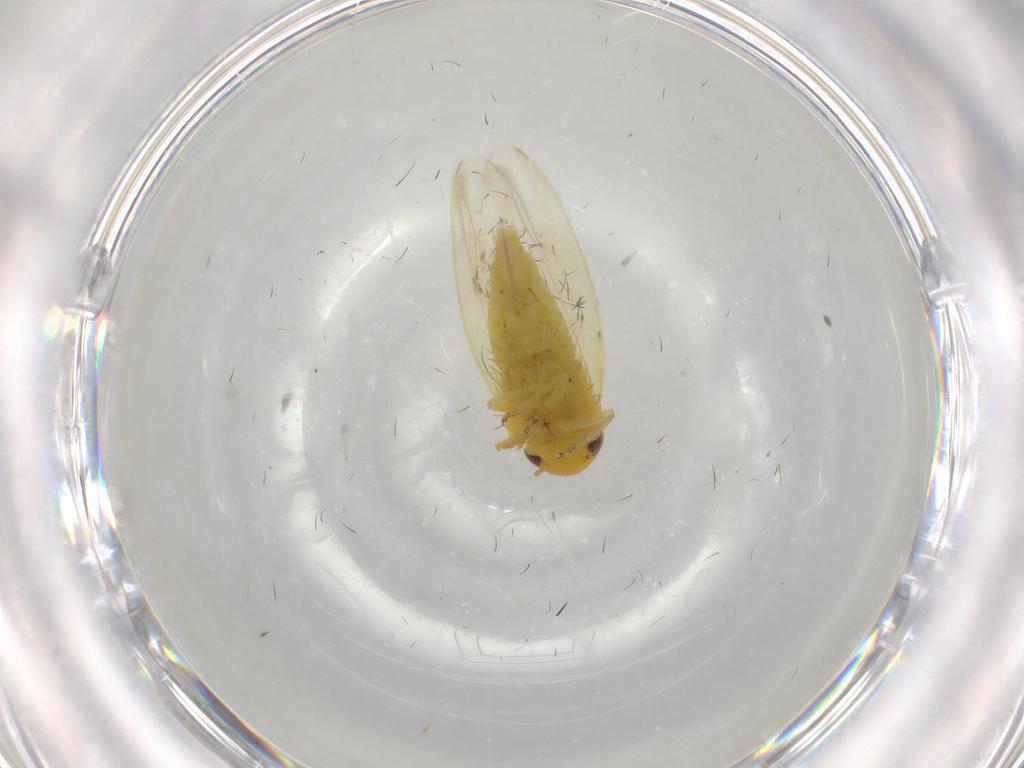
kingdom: Animalia
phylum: Arthropoda
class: Insecta
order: Hemiptera
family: Cicadellidae
